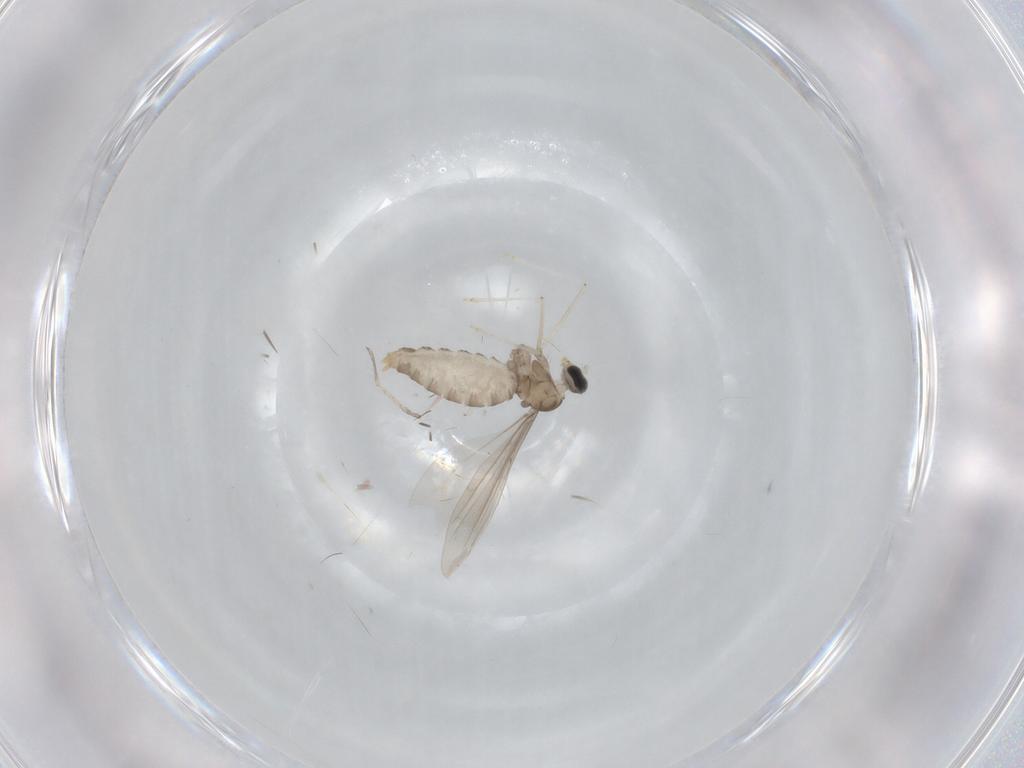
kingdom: Animalia
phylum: Arthropoda
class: Insecta
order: Diptera
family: Cecidomyiidae
